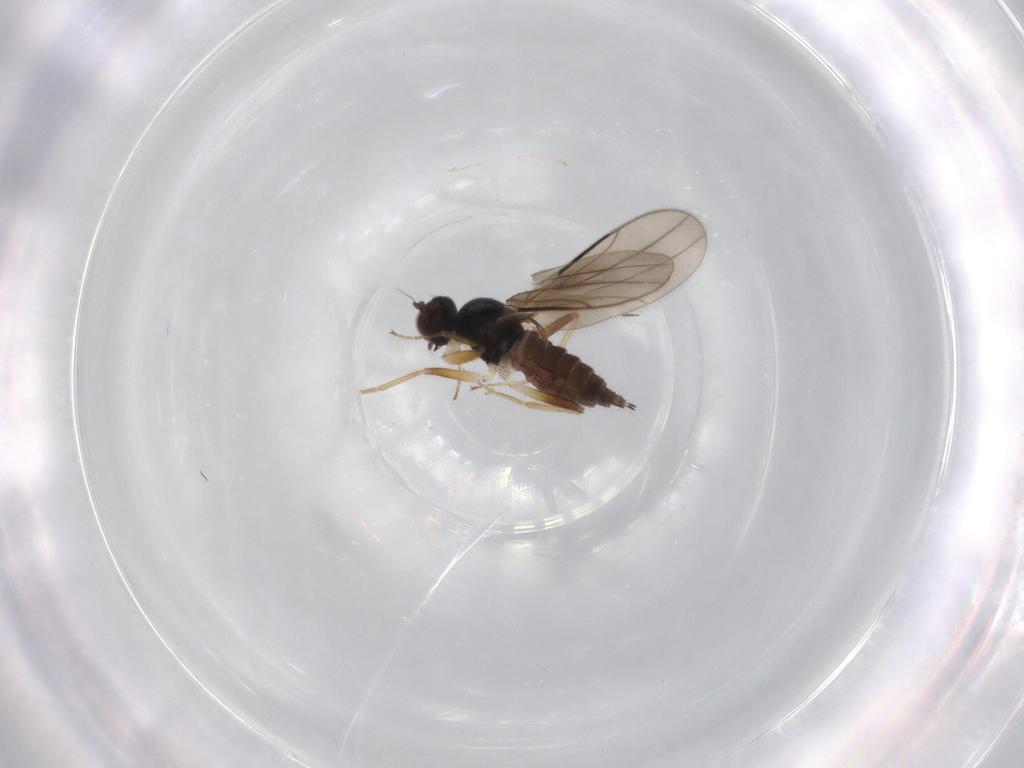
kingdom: Animalia
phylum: Arthropoda
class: Insecta
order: Diptera
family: Hybotidae
